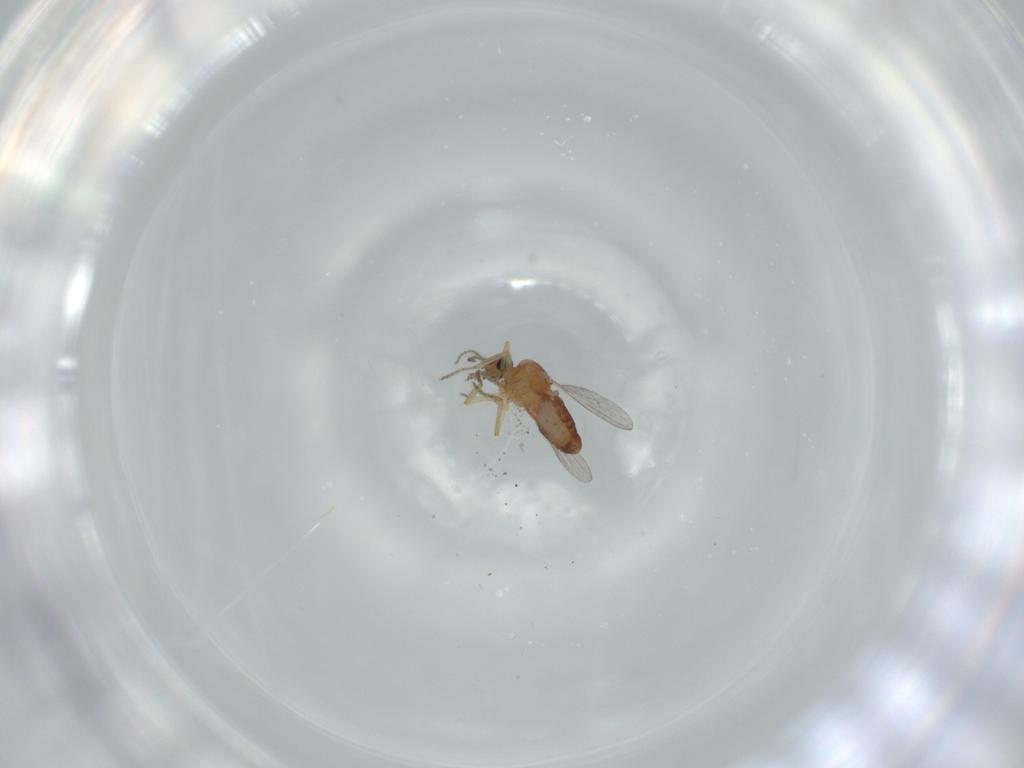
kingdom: Animalia
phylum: Arthropoda
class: Insecta
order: Diptera
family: Ceratopogonidae
